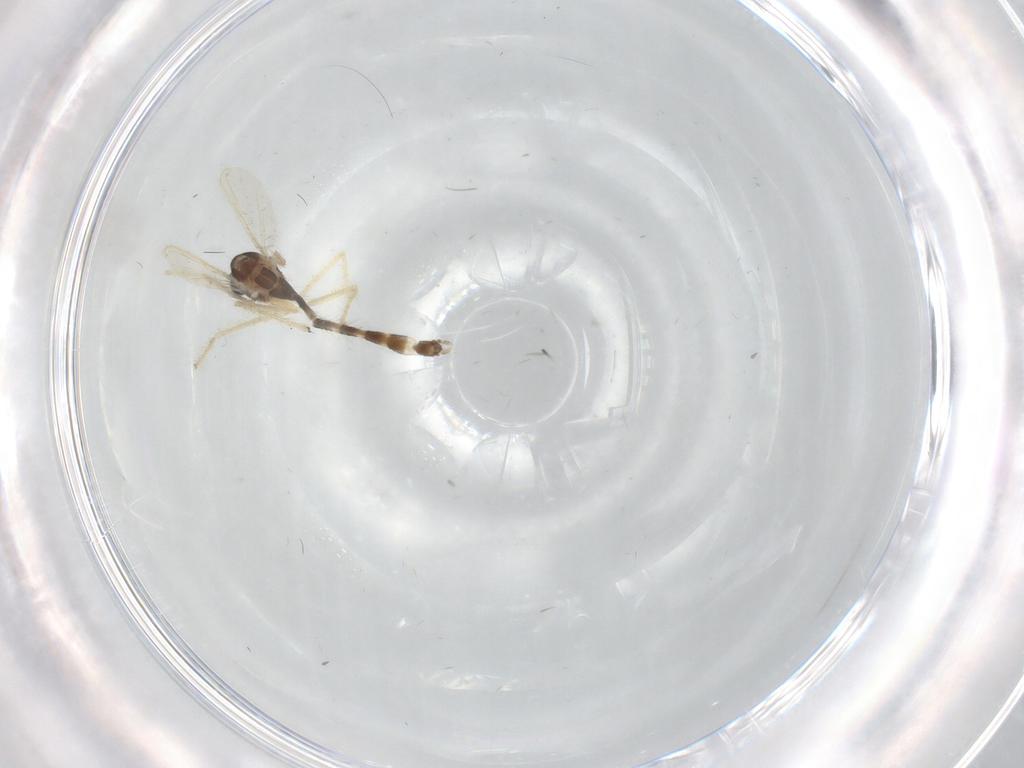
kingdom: Animalia
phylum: Arthropoda
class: Insecta
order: Diptera
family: Chironomidae
